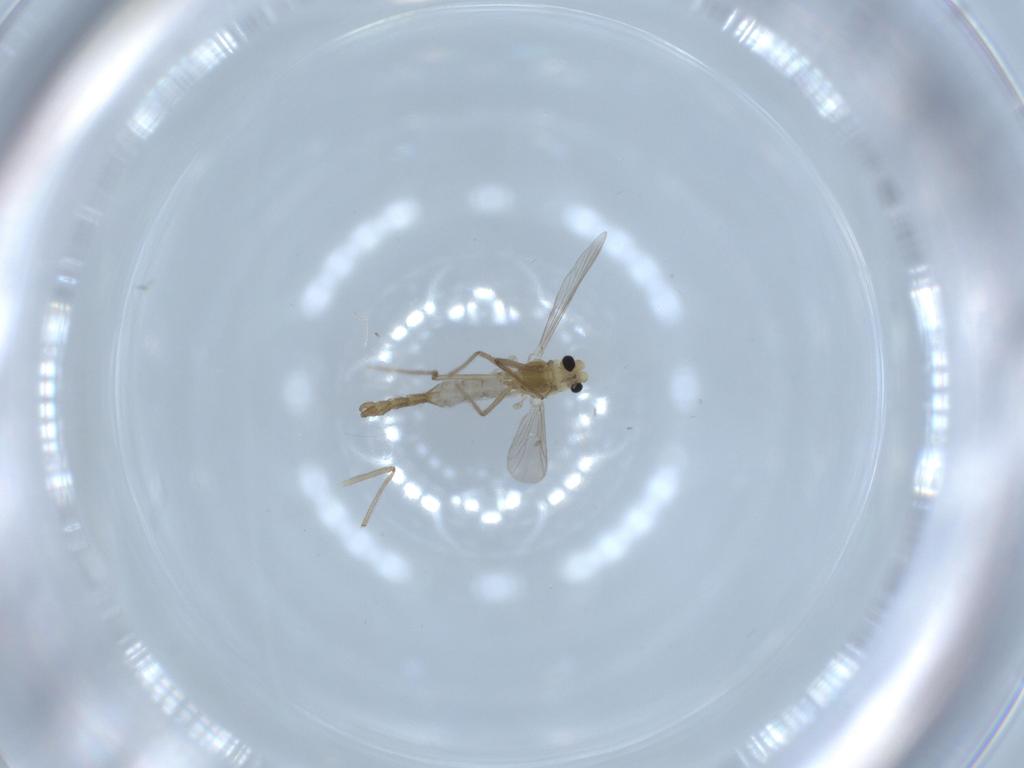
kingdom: Animalia
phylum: Arthropoda
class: Insecta
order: Diptera
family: Chironomidae
